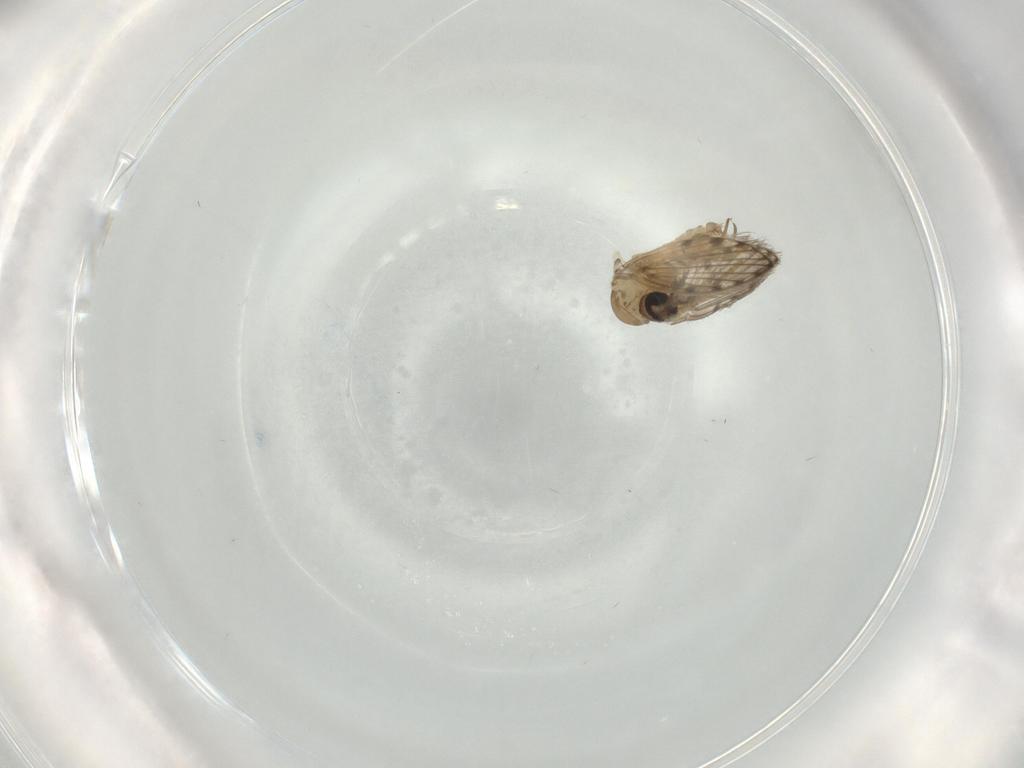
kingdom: Animalia
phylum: Arthropoda
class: Insecta
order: Diptera
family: Psychodidae
